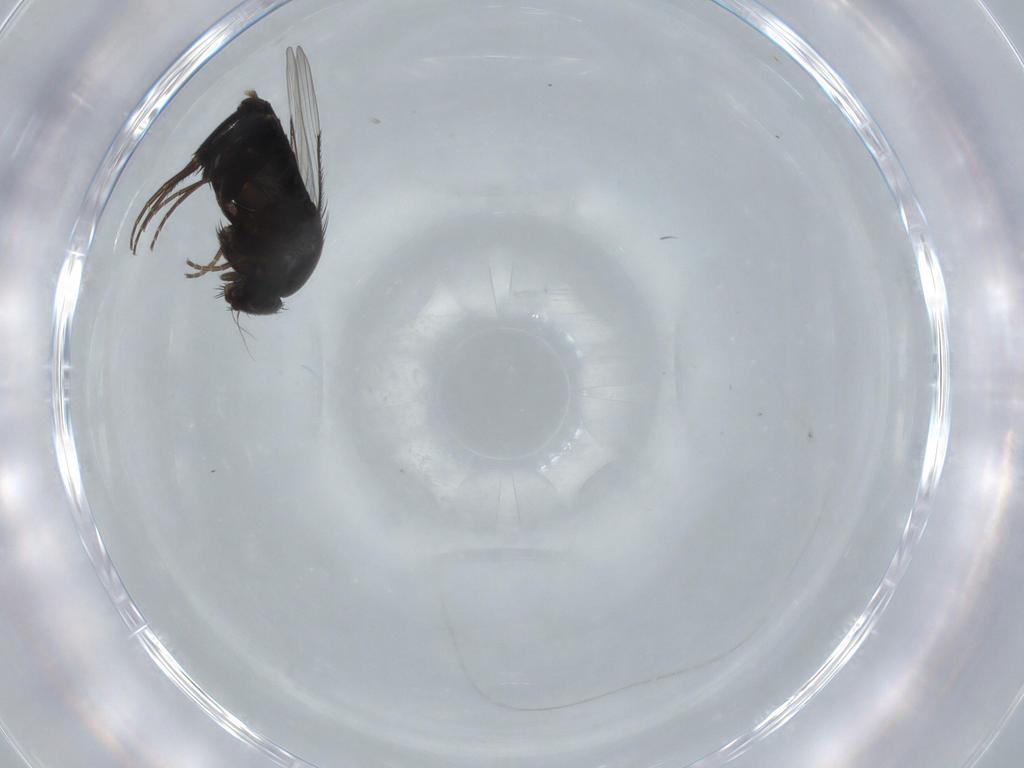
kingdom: Animalia
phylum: Arthropoda
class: Insecta
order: Diptera
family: Phoridae
